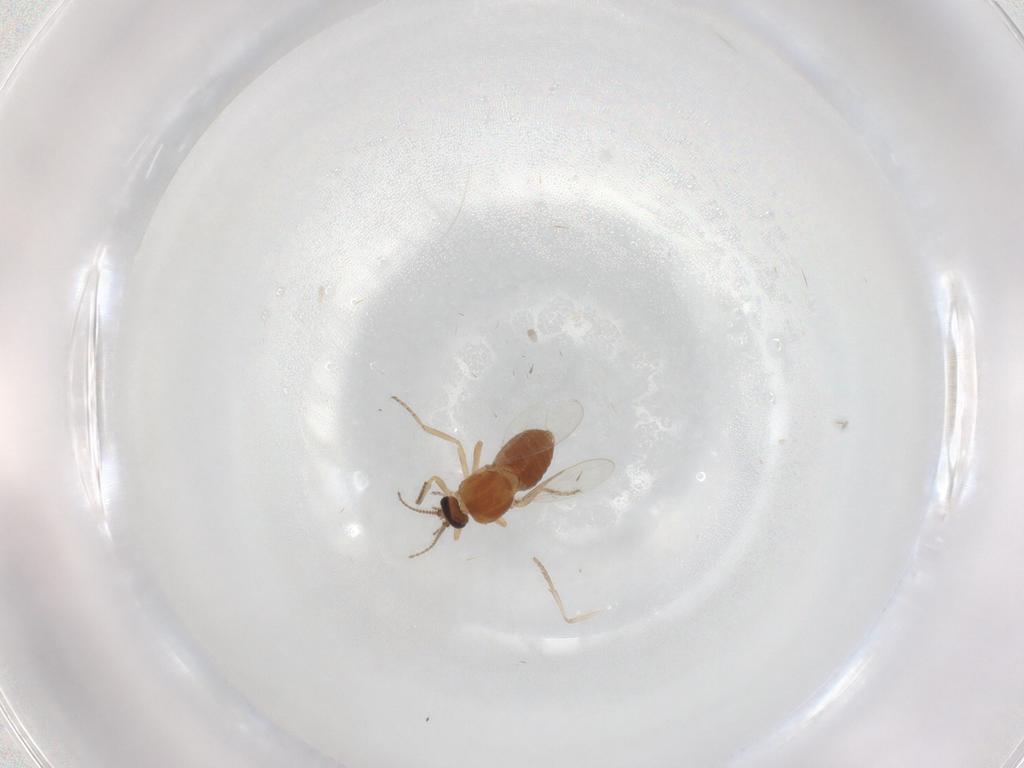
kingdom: Animalia
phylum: Arthropoda
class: Insecta
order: Diptera
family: Ceratopogonidae
